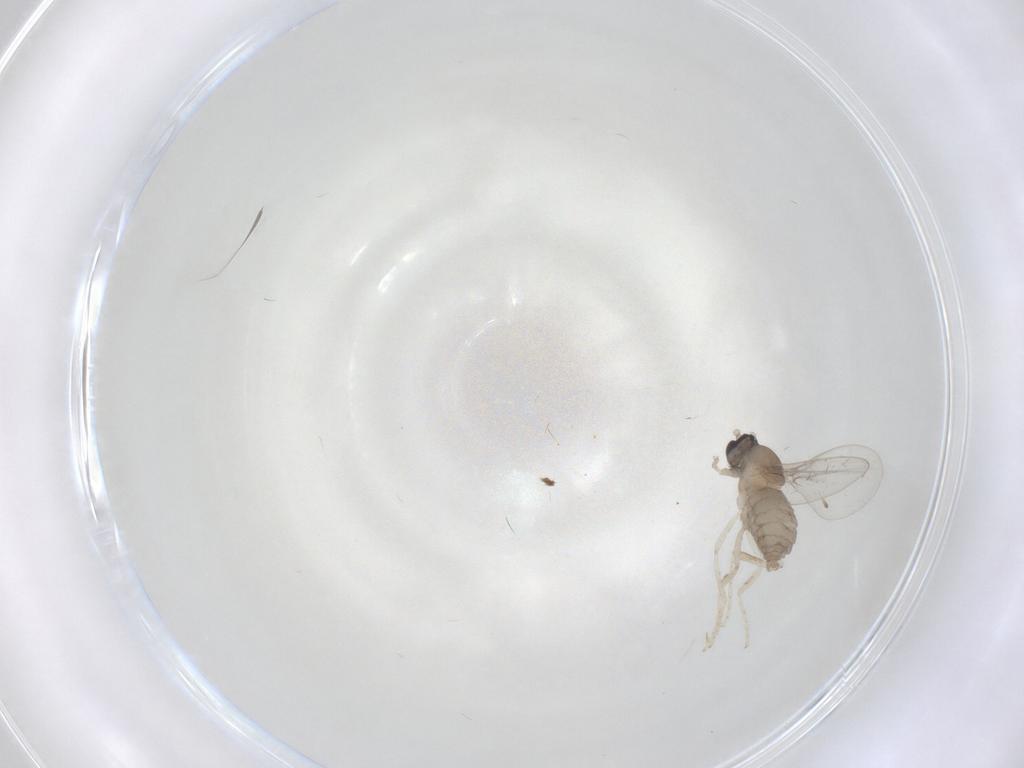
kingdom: Animalia
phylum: Arthropoda
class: Insecta
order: Diptera
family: Cecidomyiidae
